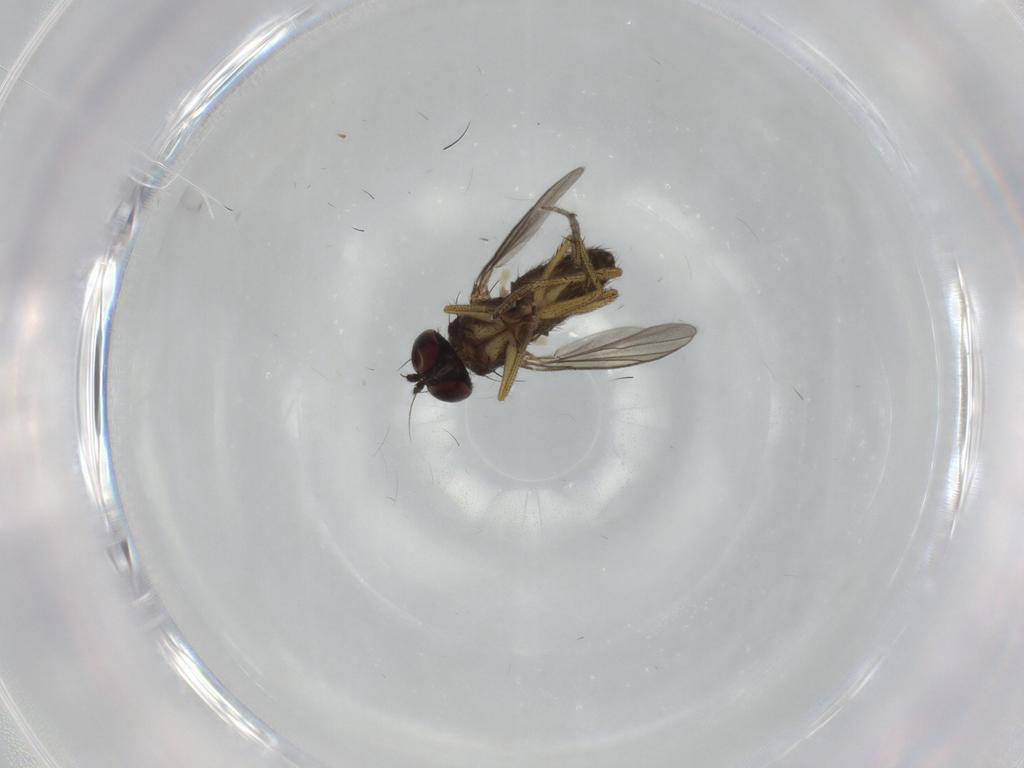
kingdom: Animalia
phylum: Arthropoda
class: Insecta
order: Diptera
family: Dolichopodidae
